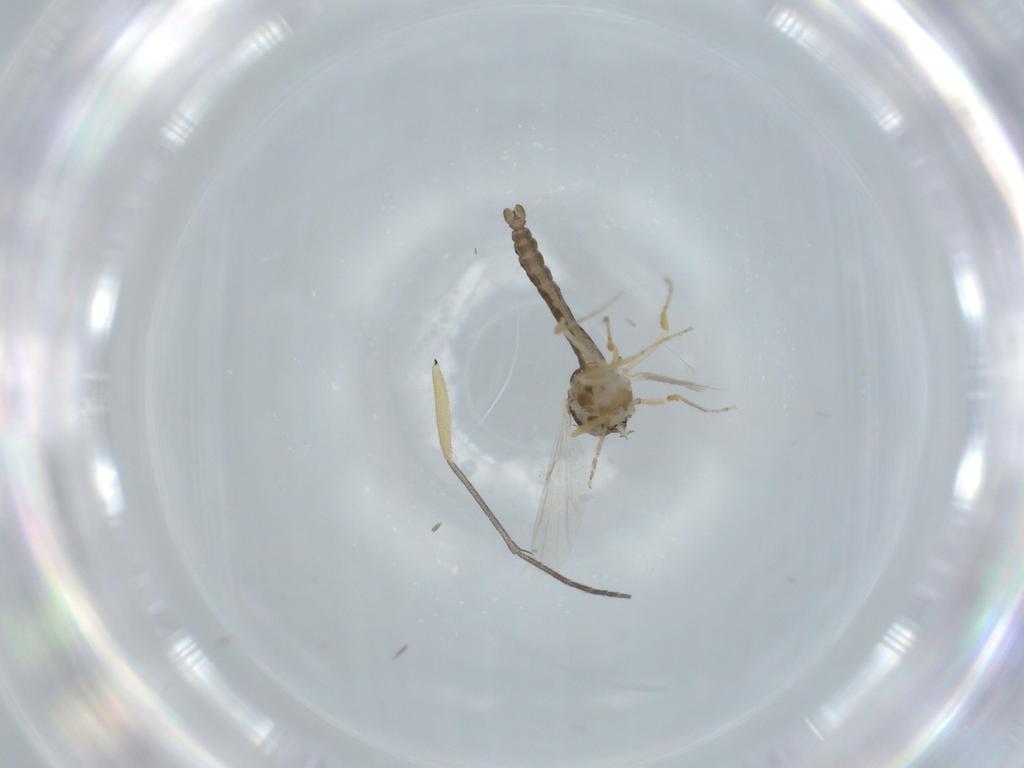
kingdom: Animalia
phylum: Arthropoda
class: Insecta
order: Diptera
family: Ceratopogonidae
